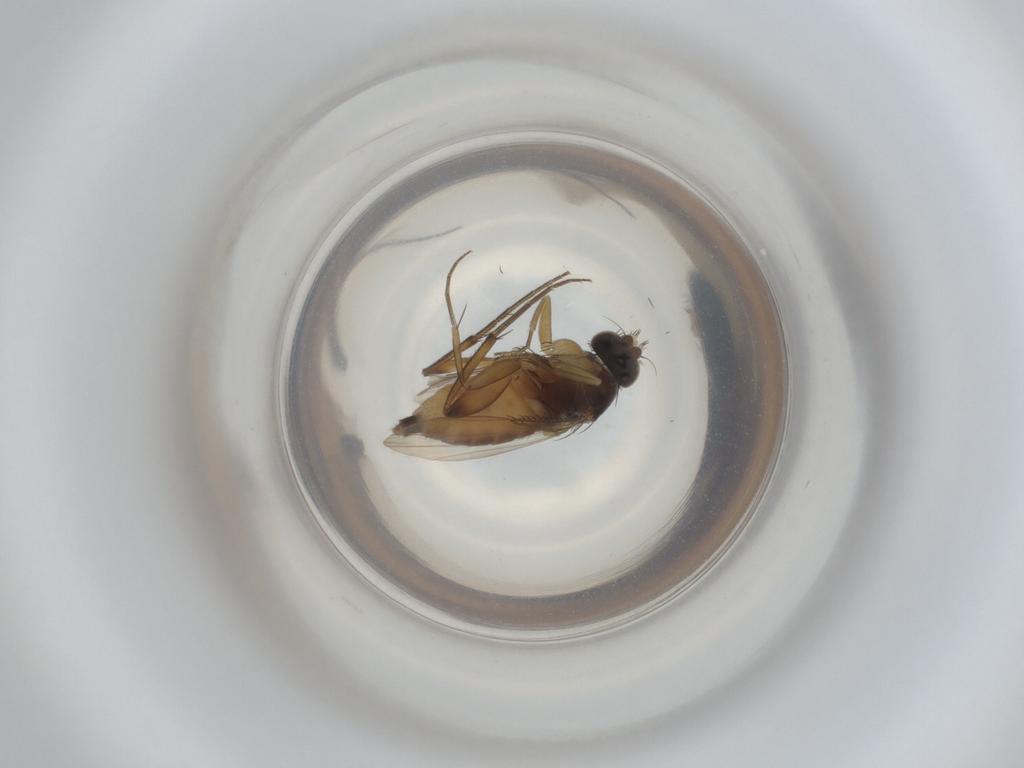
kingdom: Animalia
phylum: Arthropoda
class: Insecta
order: Diptera
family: Phoridae
